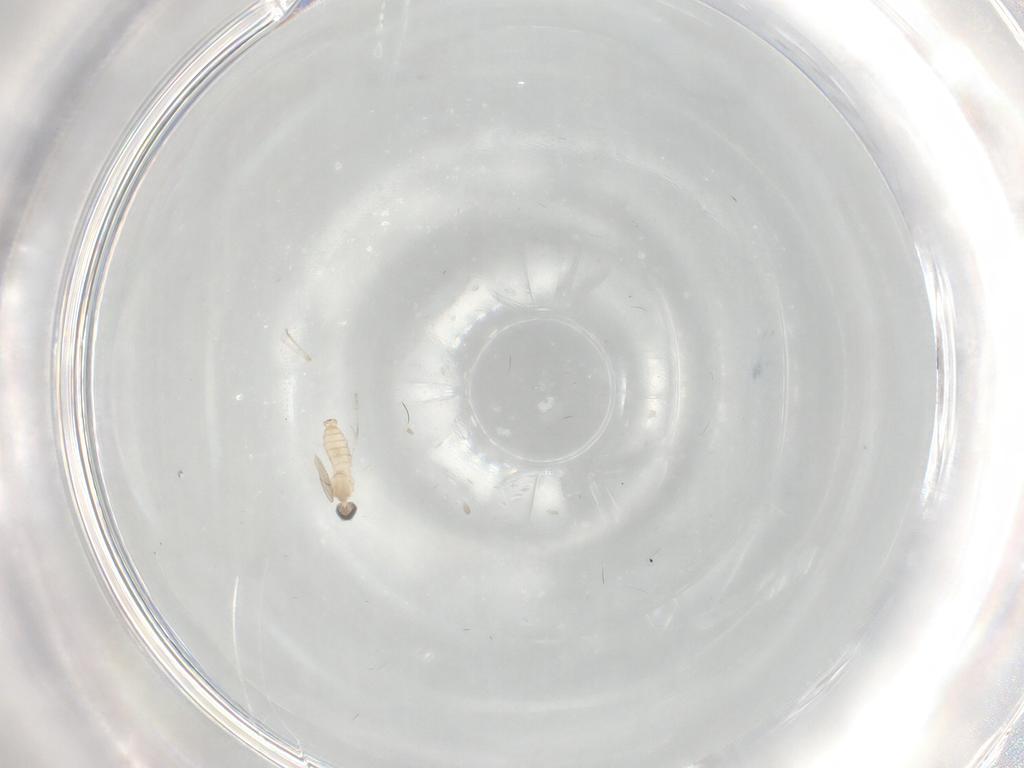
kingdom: Animalia
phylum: Arthropoda
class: Insecta
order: Diptera
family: Cecidomyiidae
